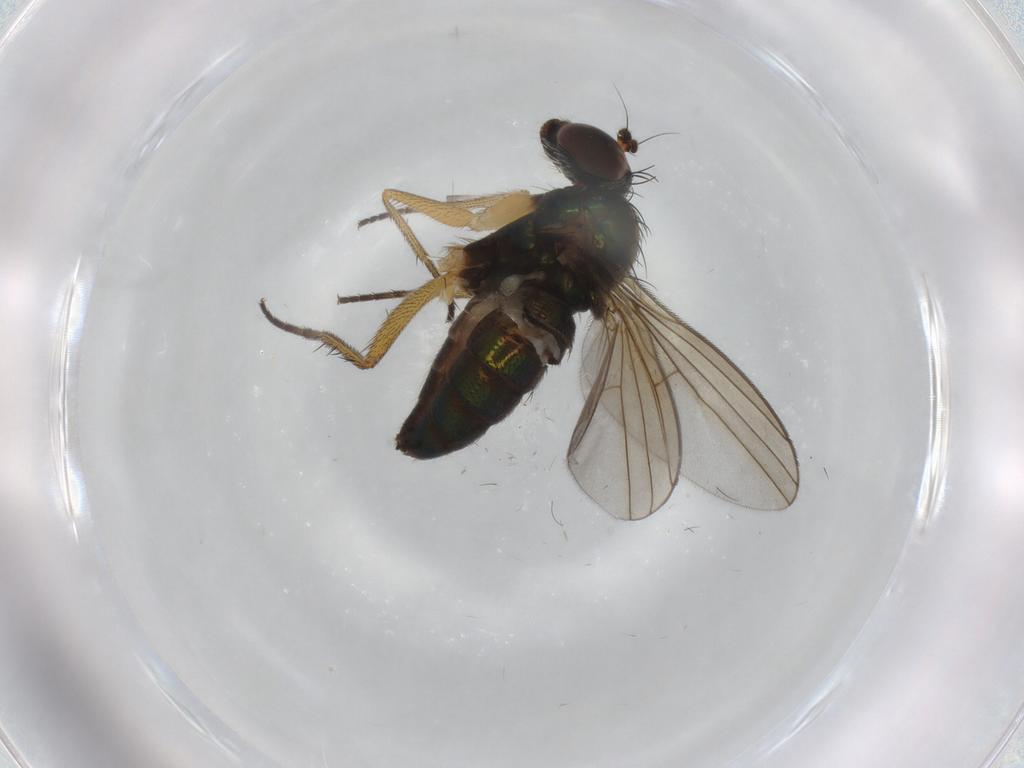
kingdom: Animalia
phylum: Arthropoda
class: Insecta
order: Diptera
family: Dolichopodidae
